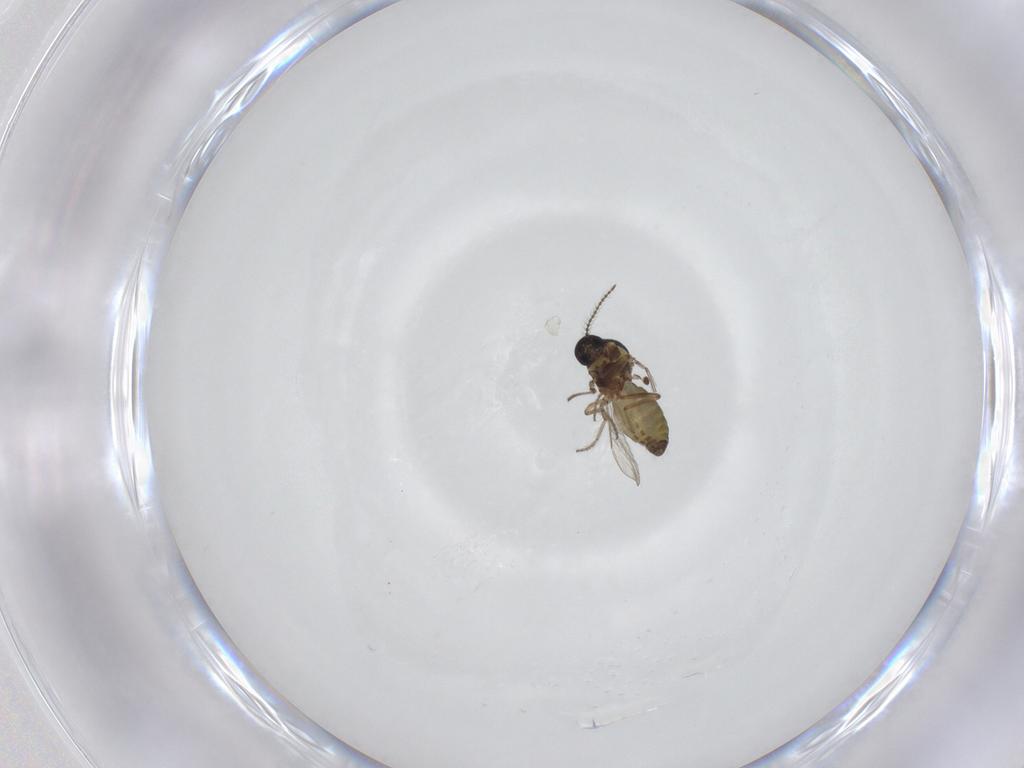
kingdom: Animalia
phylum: Arthropoda
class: Insecta
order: Diptera
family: Ceratopogonidae
